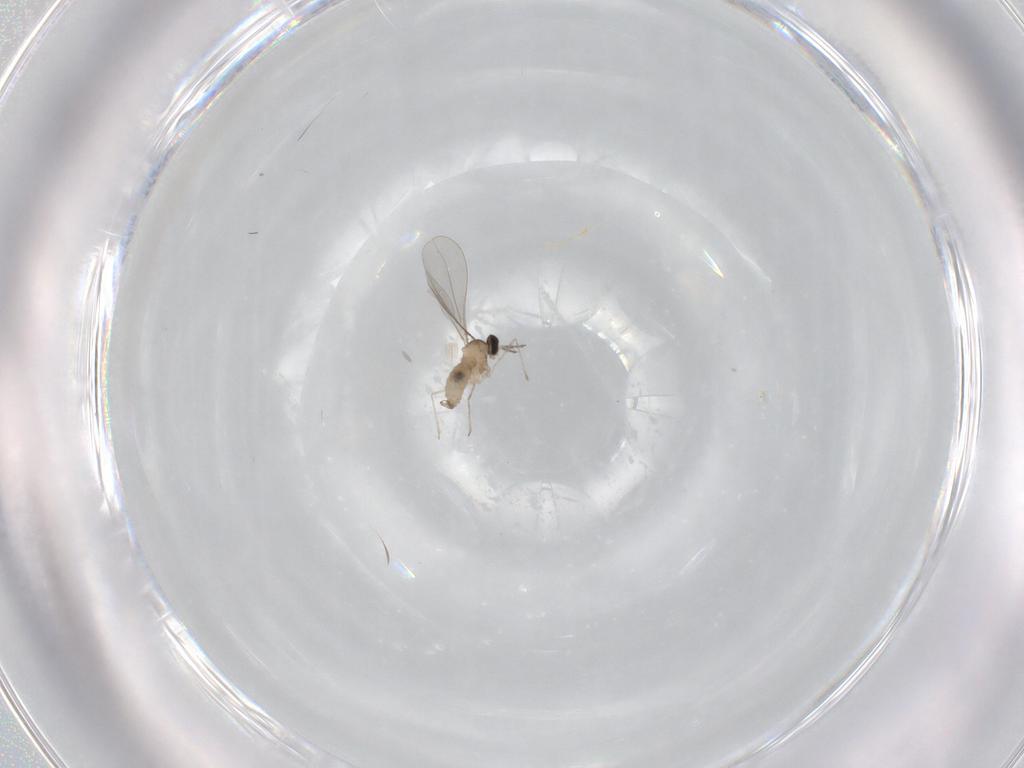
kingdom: Animalia
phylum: Arthropoda
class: Insecta
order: Diptera
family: Cecidomyiidae
